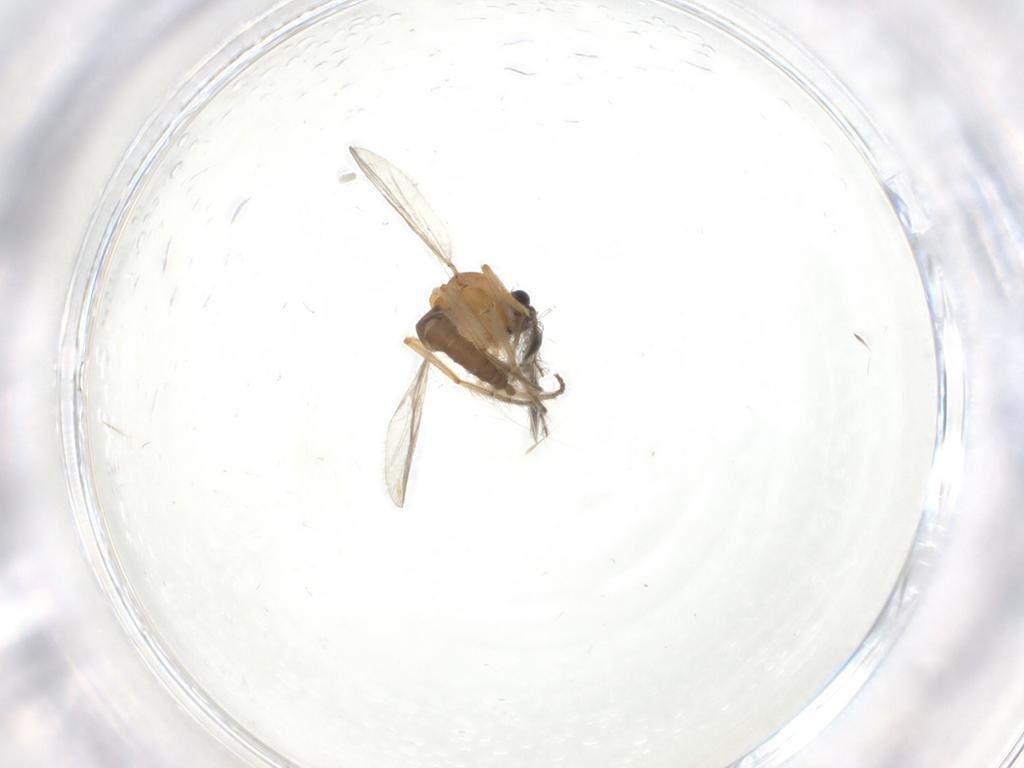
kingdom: Animalia
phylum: Arthropoda
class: Insecta
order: Diptera
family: Ceratopogonidae
